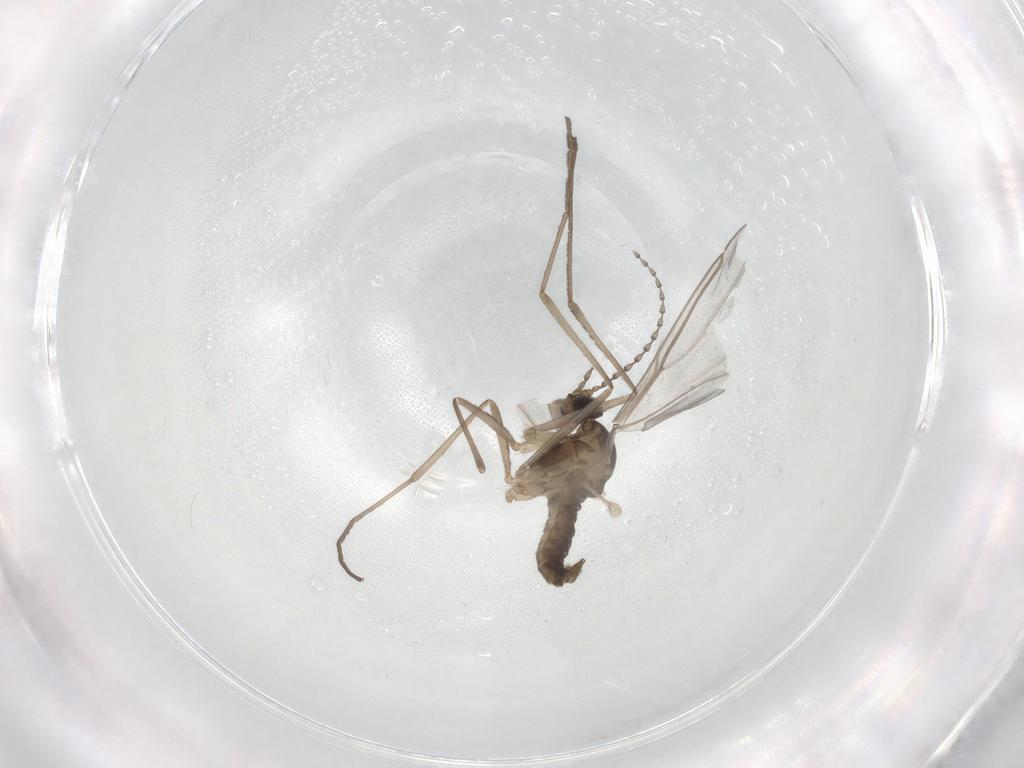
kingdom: Animalia
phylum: Arthropoda
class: Insecta
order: Diptera
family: Cecidomyiidae
